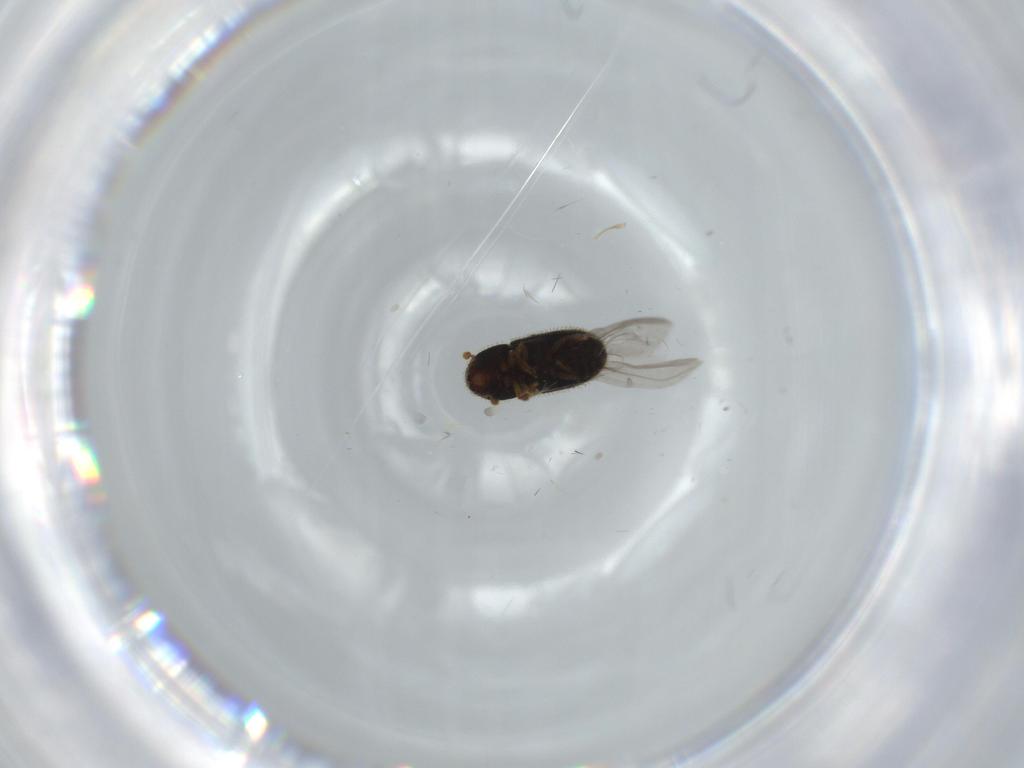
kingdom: Animalia
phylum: Arthropoda
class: Insecta
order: Coleoptera
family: Curculionidae
